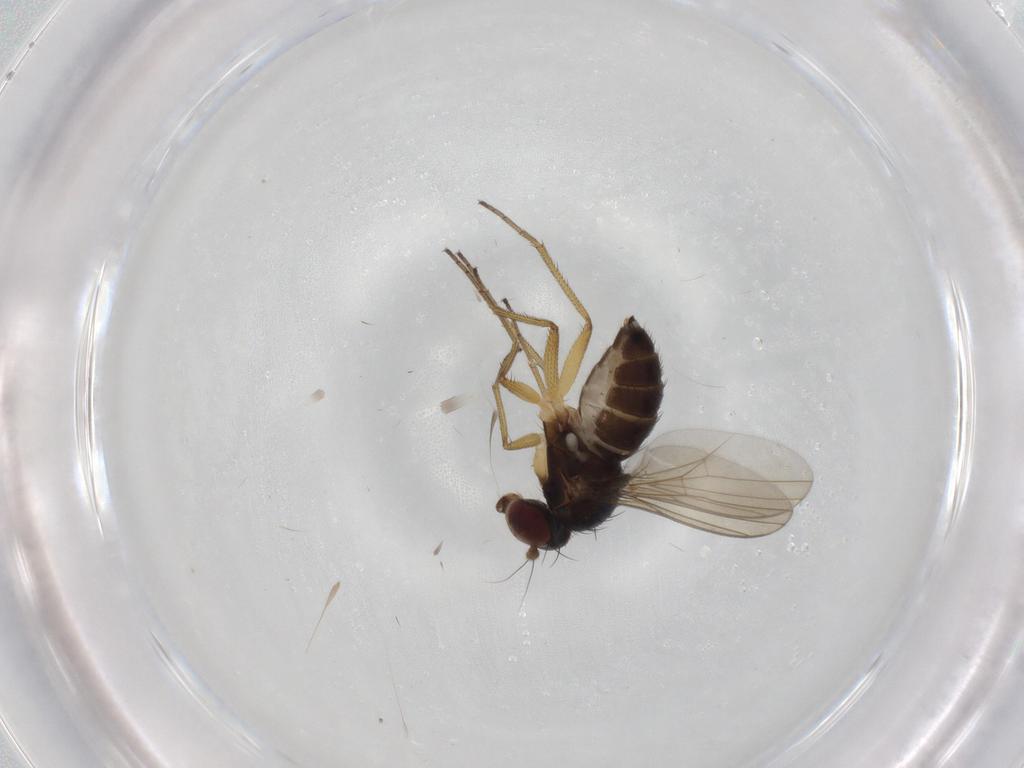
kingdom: Animalia
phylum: Arthropoda
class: Insecta
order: Diptera
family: Dolichopodidae
